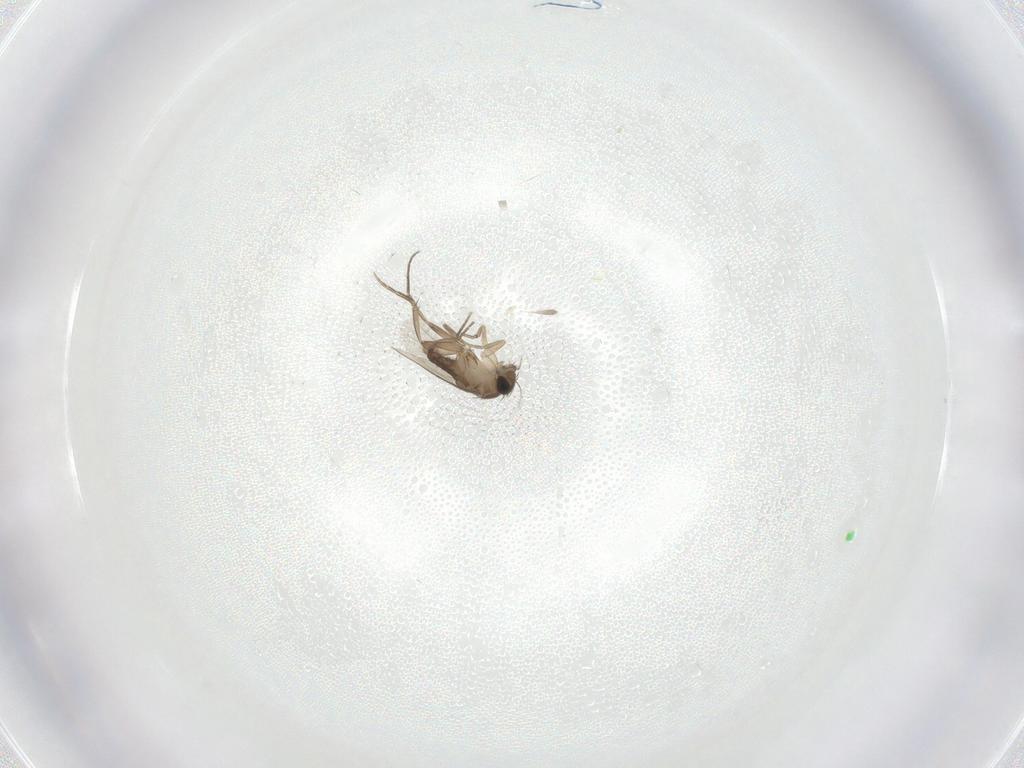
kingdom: Animalia
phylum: Arthropoda
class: Insecta
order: Diptera
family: Phoridae
